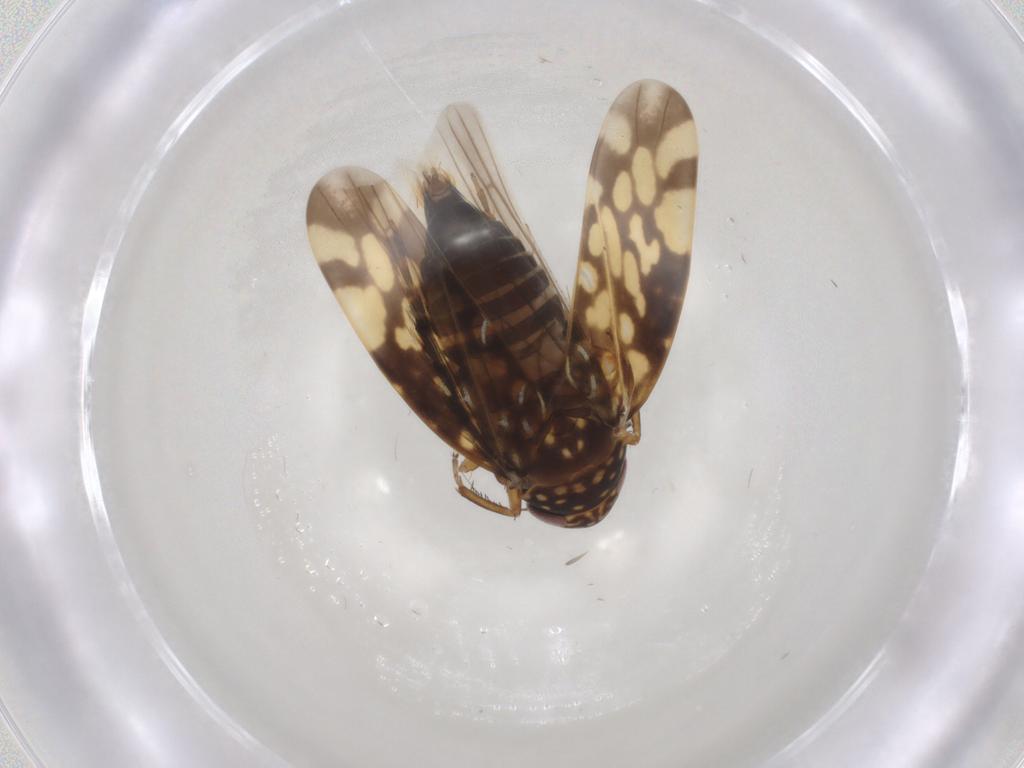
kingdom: Animalia
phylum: Arthropoda
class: Insecta
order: Hemiptera
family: Cicadellidae
